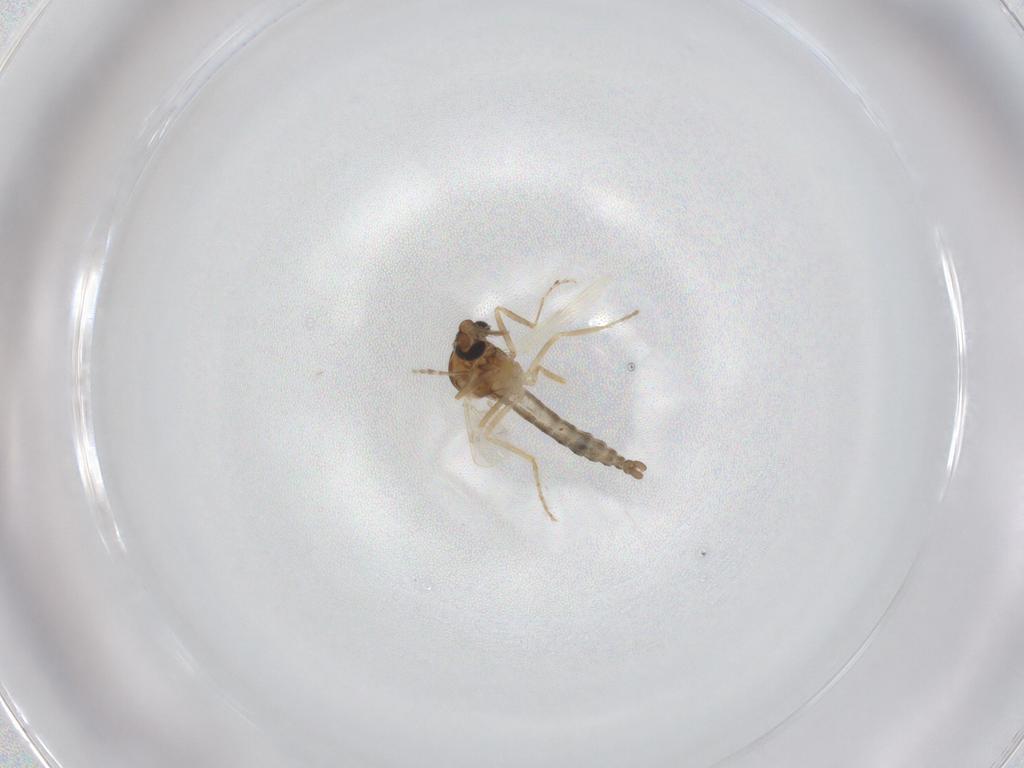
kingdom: Animalia
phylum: Arthropoda
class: Insecta
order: Diptera
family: Ceratopogonidae
